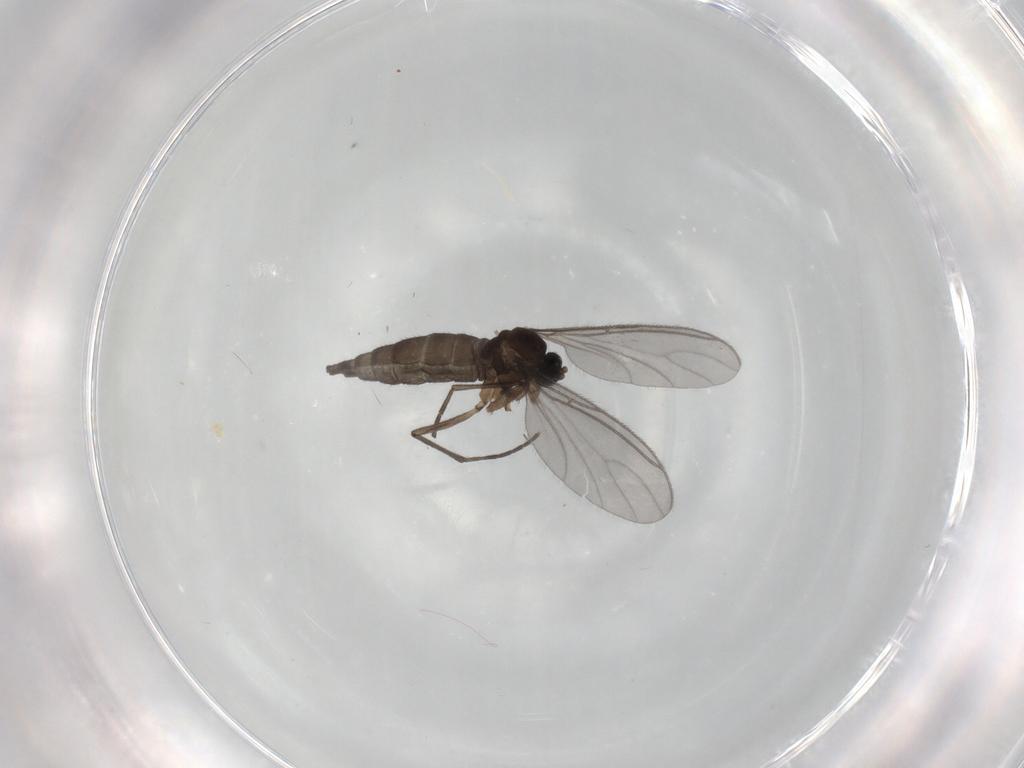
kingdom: Animalia
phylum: Arthropoda
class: Insecta
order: Diptera
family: Sciaridae
